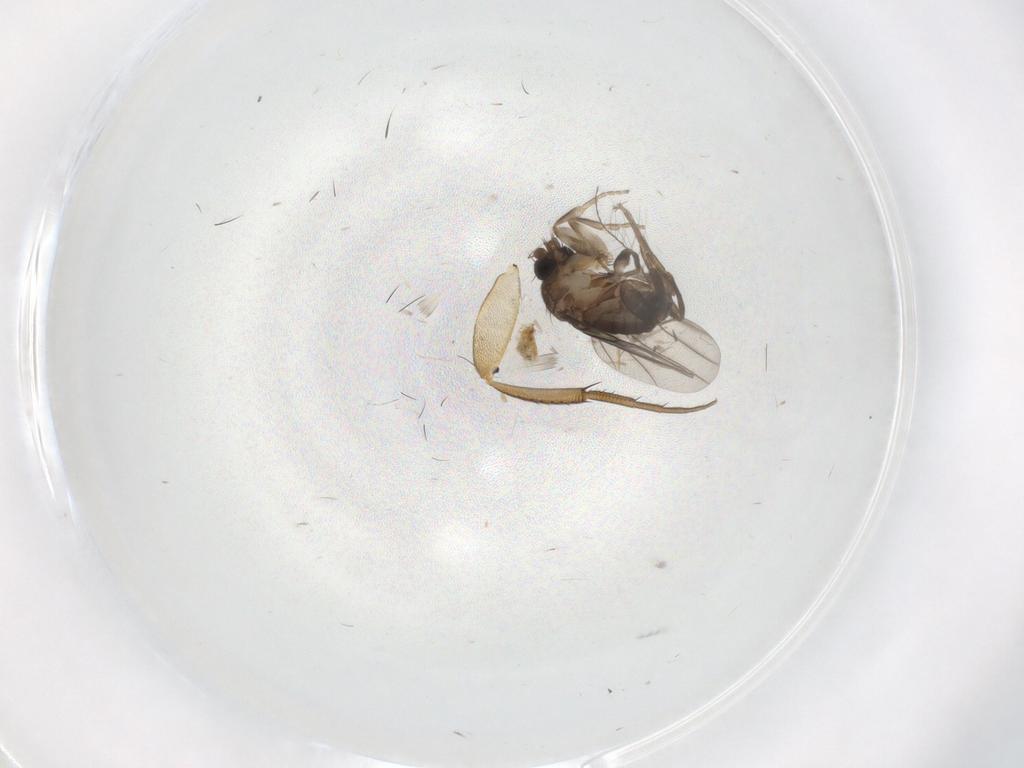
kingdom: Animalia
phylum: Arthropoda
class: Insecta
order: Diptera
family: Phoridae
